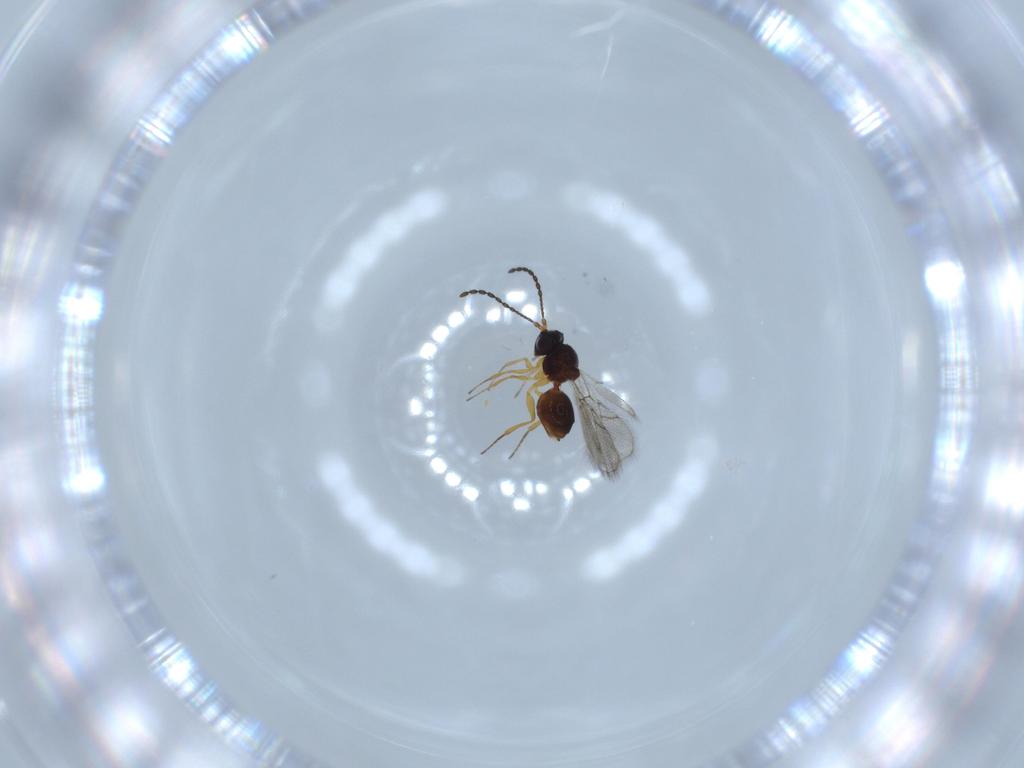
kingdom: Animalia
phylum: Arthropoda
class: Insecta
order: Hymenoptera
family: Figitidae
